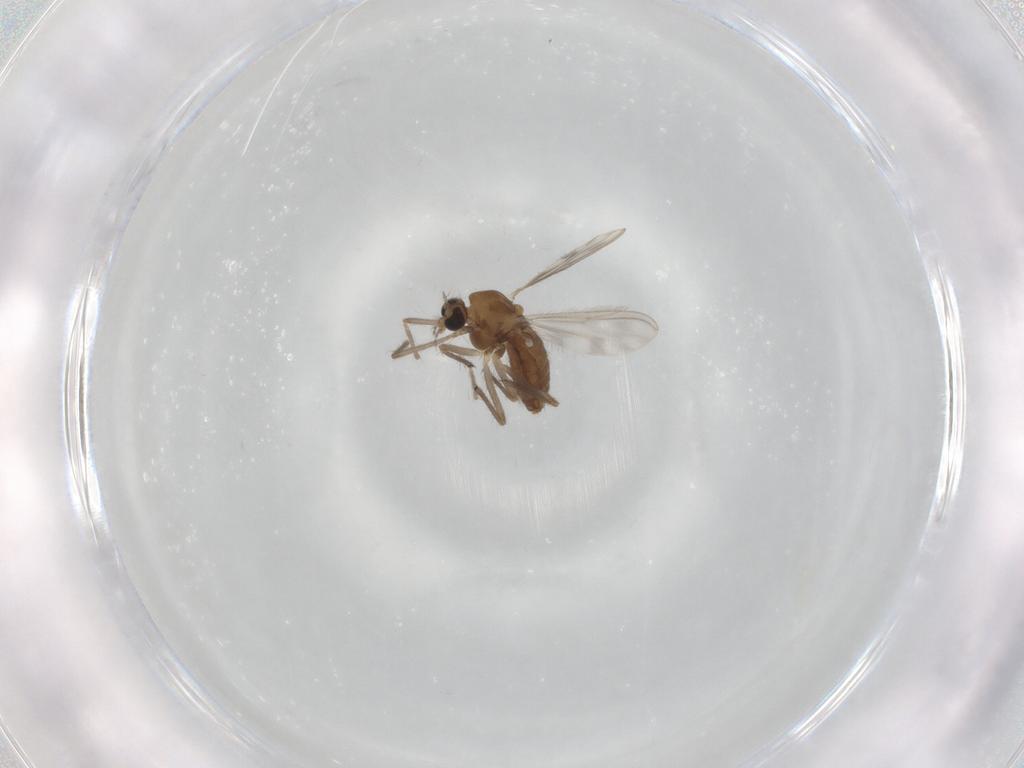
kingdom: Animalia
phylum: Arthropoda
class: Insecta
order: Diptera
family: Chironomidae
